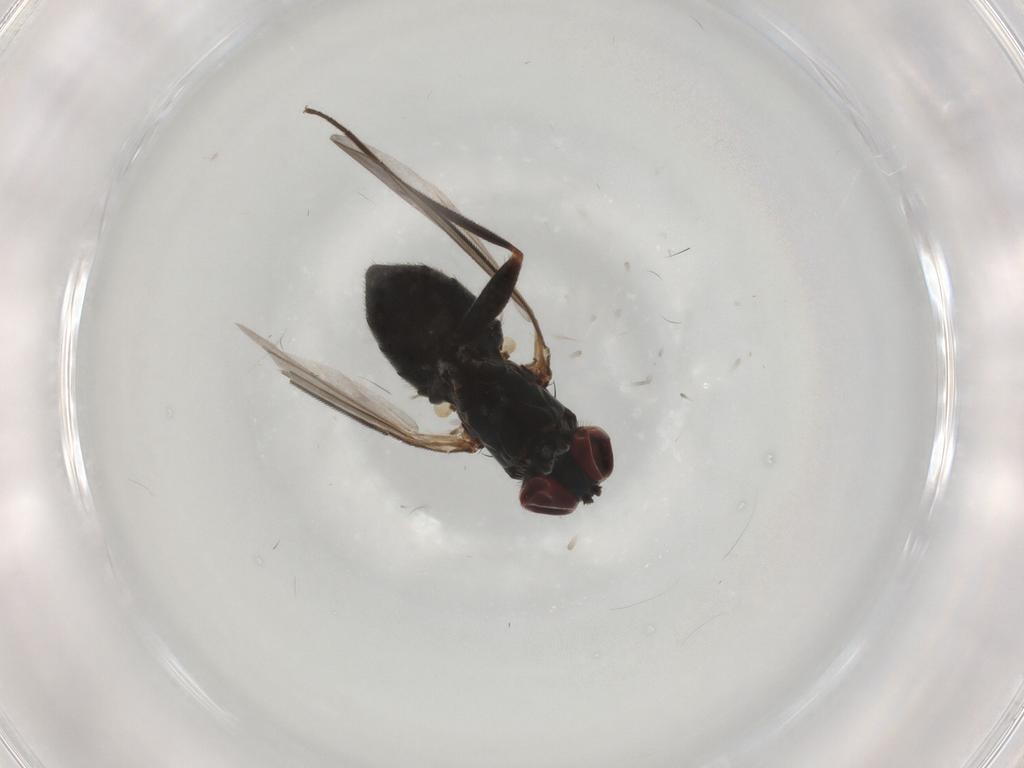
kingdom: Animalia
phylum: Arthropoda
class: Insecta
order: Diptera
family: Dolichopodidae
